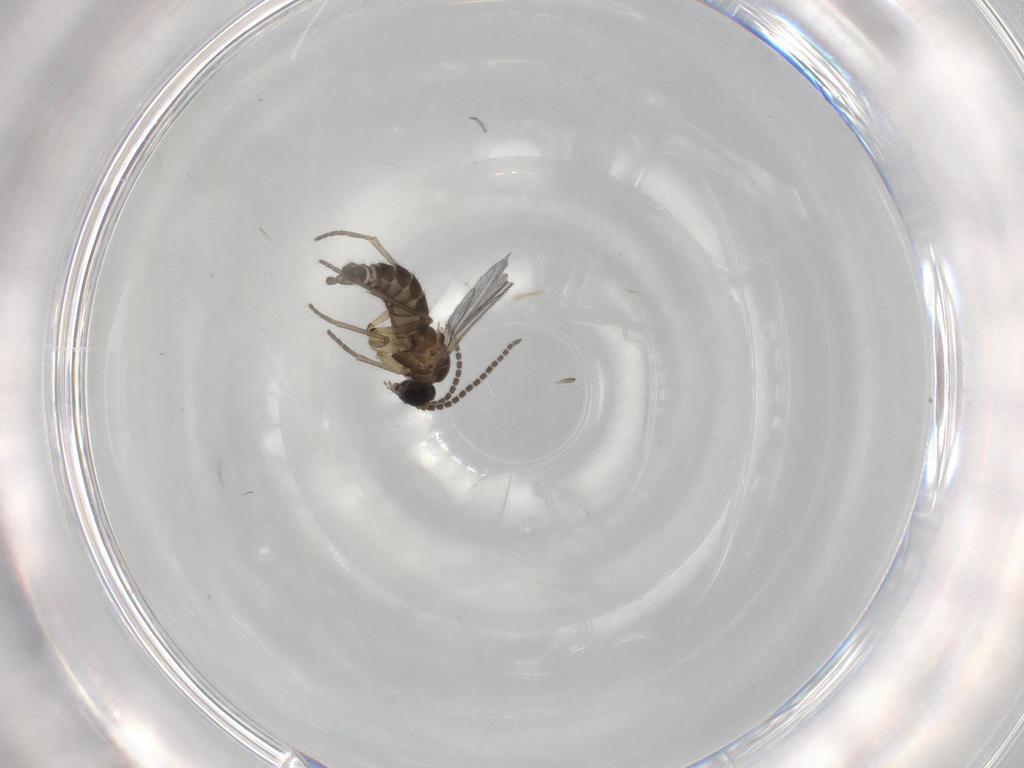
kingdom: Animalia
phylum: Arthropoda
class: Insecta
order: Diptera
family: Sciaridae
